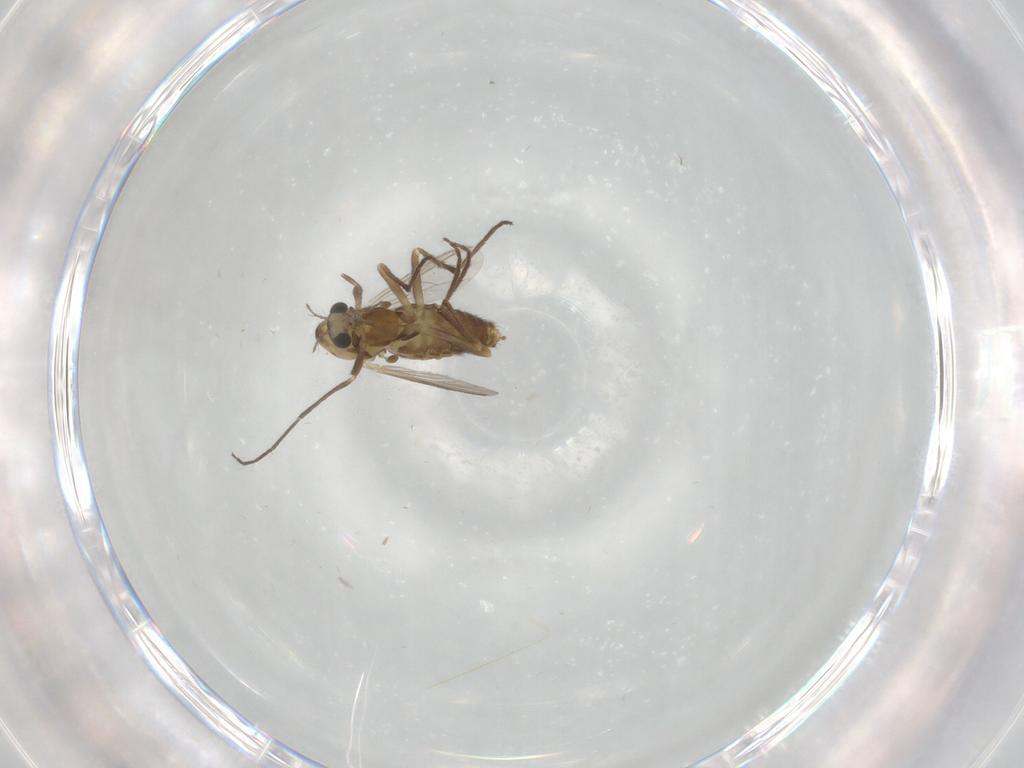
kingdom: Animalia
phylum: Arthropoda
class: Insecta
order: Diptera
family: Chironomidae
